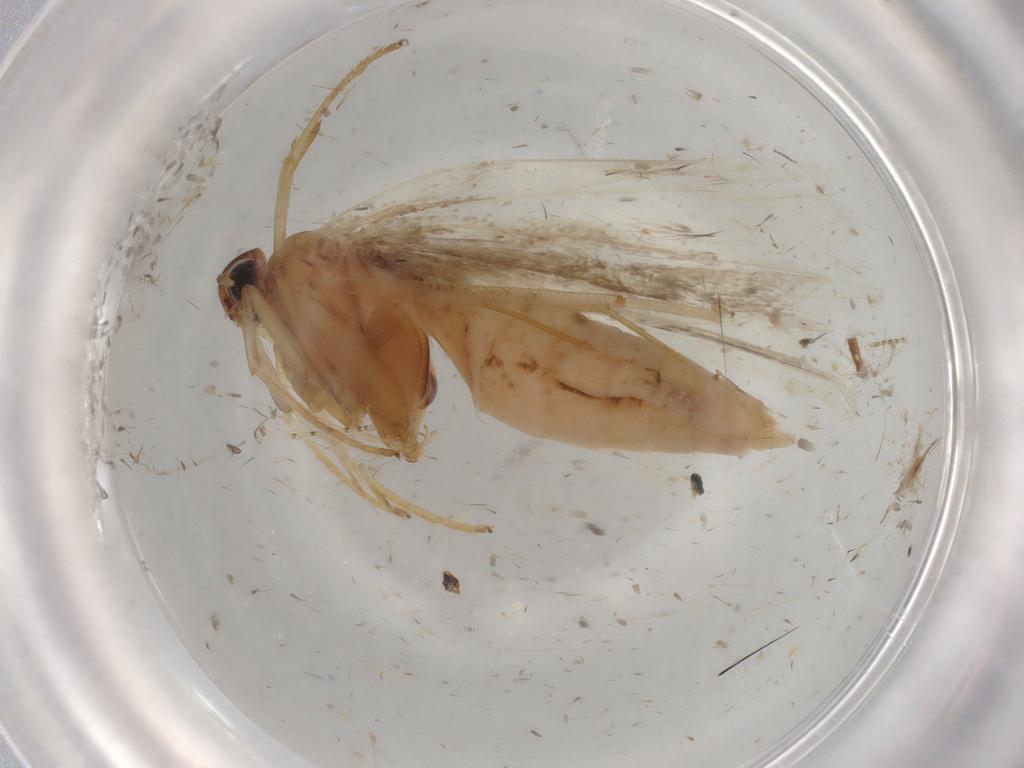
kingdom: Animalia
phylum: Arthropoda
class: Insecta
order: Lepidoptera
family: Gelechiidae
